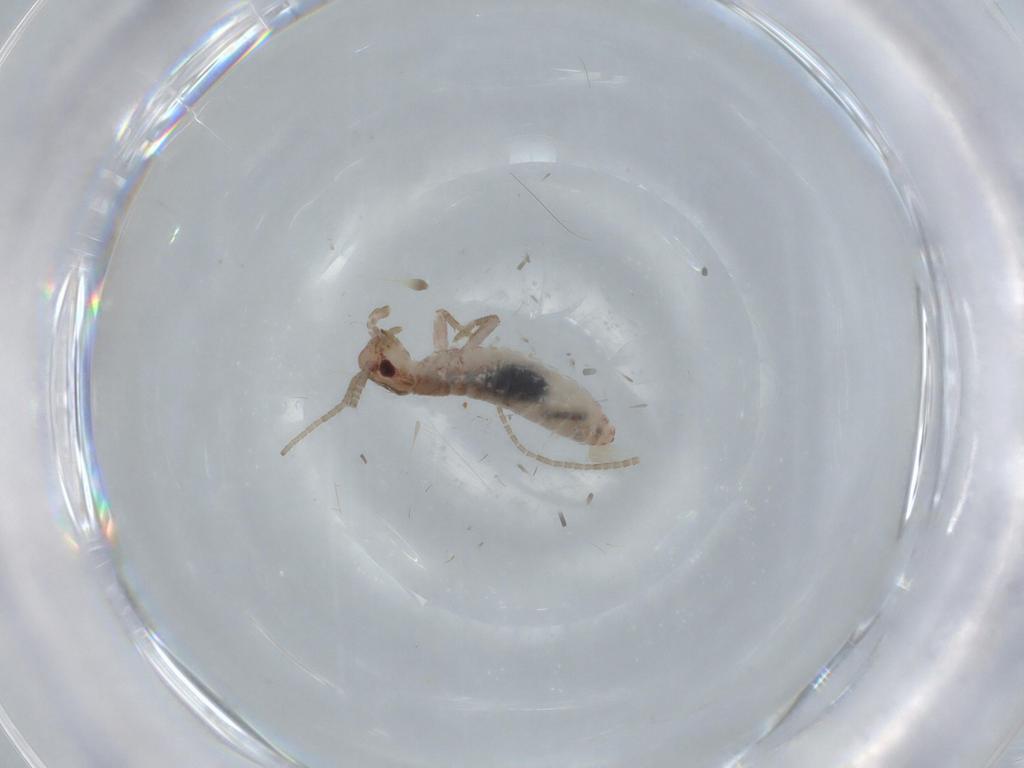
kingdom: Animalia
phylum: Arthropoda
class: Insecta
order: Orthoptera
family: Mogoplistidae
